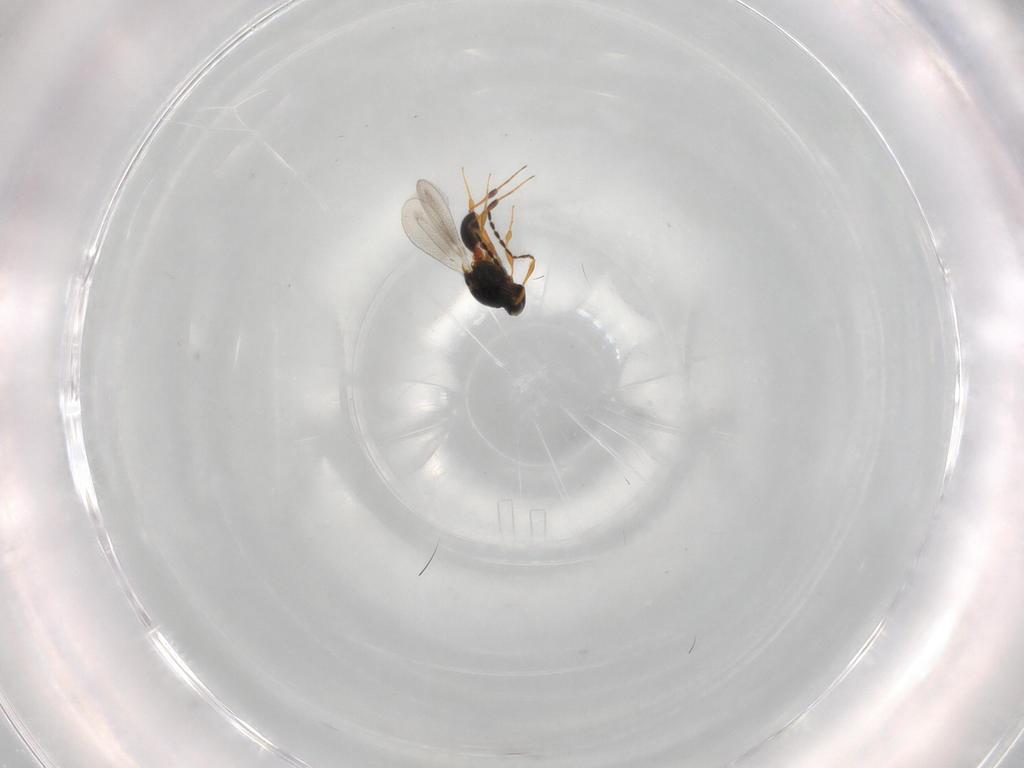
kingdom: Animalia
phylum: Arthropoda
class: Insecta
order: Hymenoptera
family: Platygastridae
